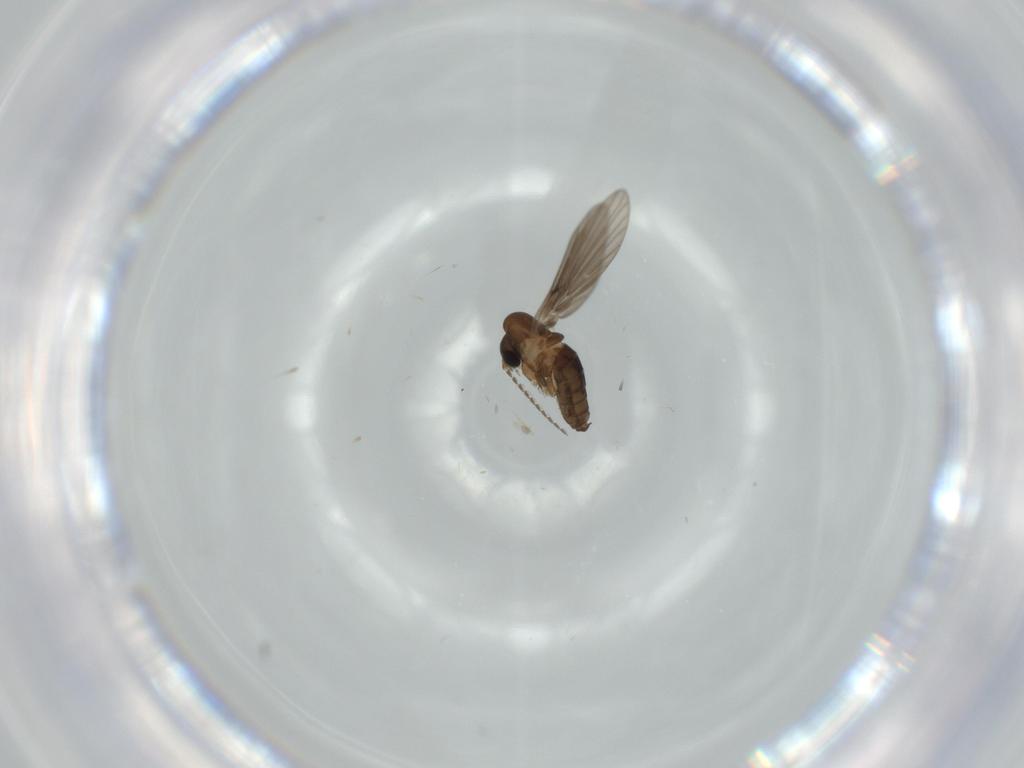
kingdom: Animalia
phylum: Arthropoda
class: Insecta
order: Diptera
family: Psychodidae
